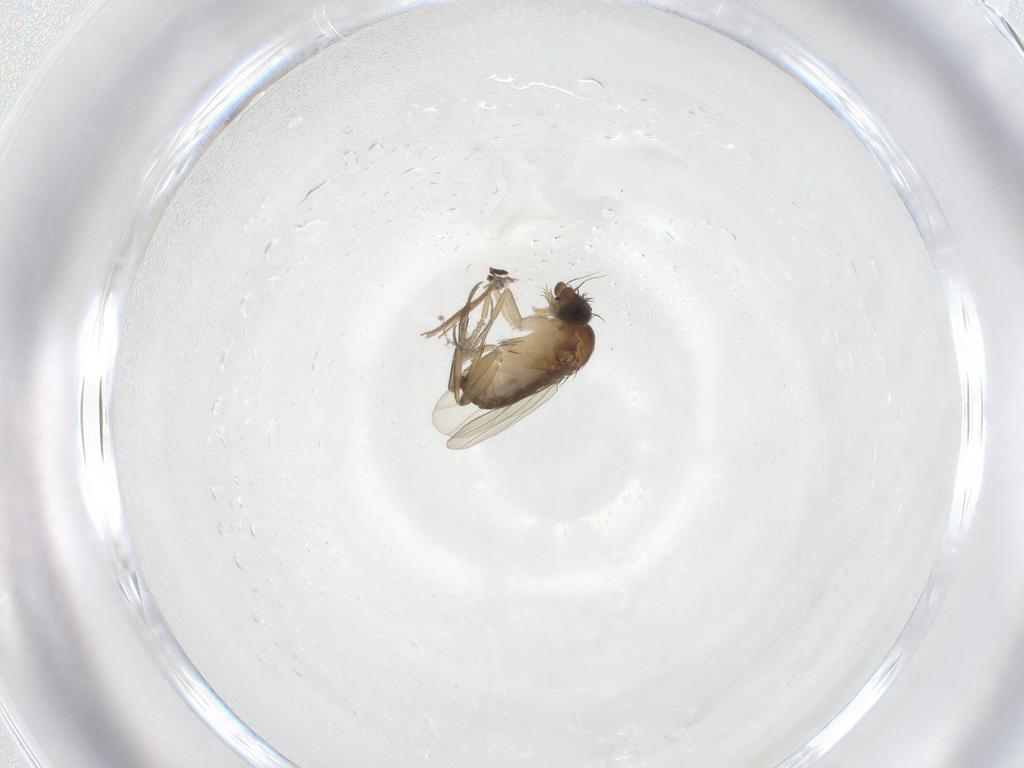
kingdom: Animalia
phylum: Arthropoda
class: Insecta
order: Diptera
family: Phoridae
